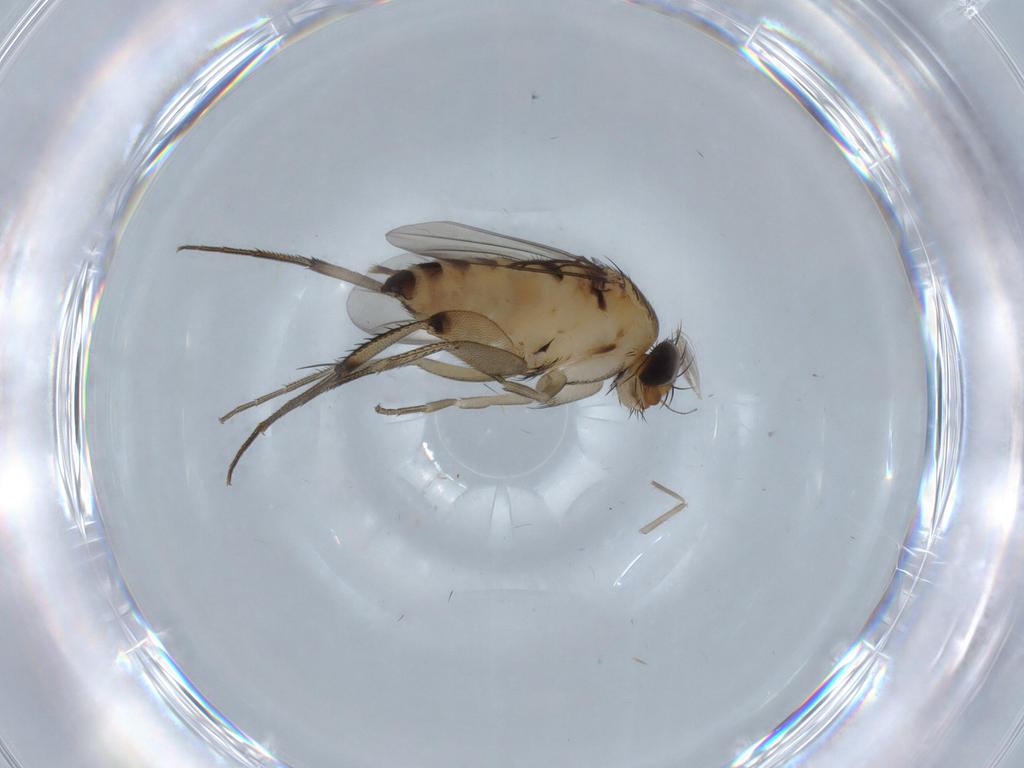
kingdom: Animalia
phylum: Arthropoda
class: Insecta
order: Diptera
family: Phoridae
